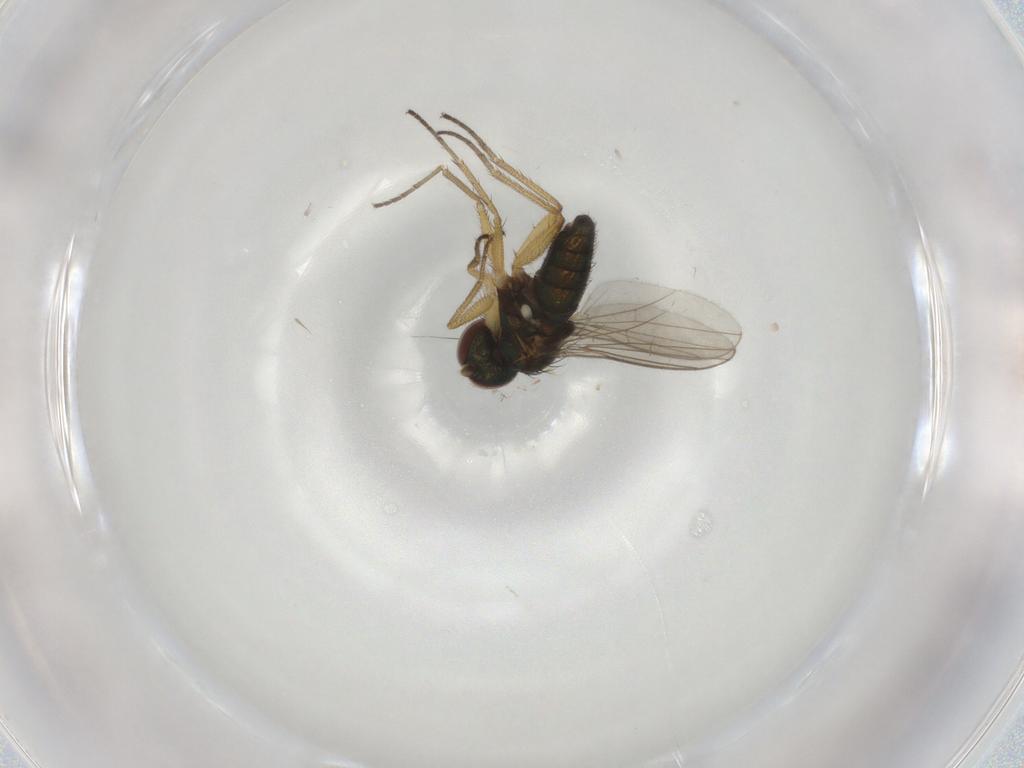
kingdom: Animalia
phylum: Arthropoda
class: Insecta
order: Diptera
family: Dolichopodidae
